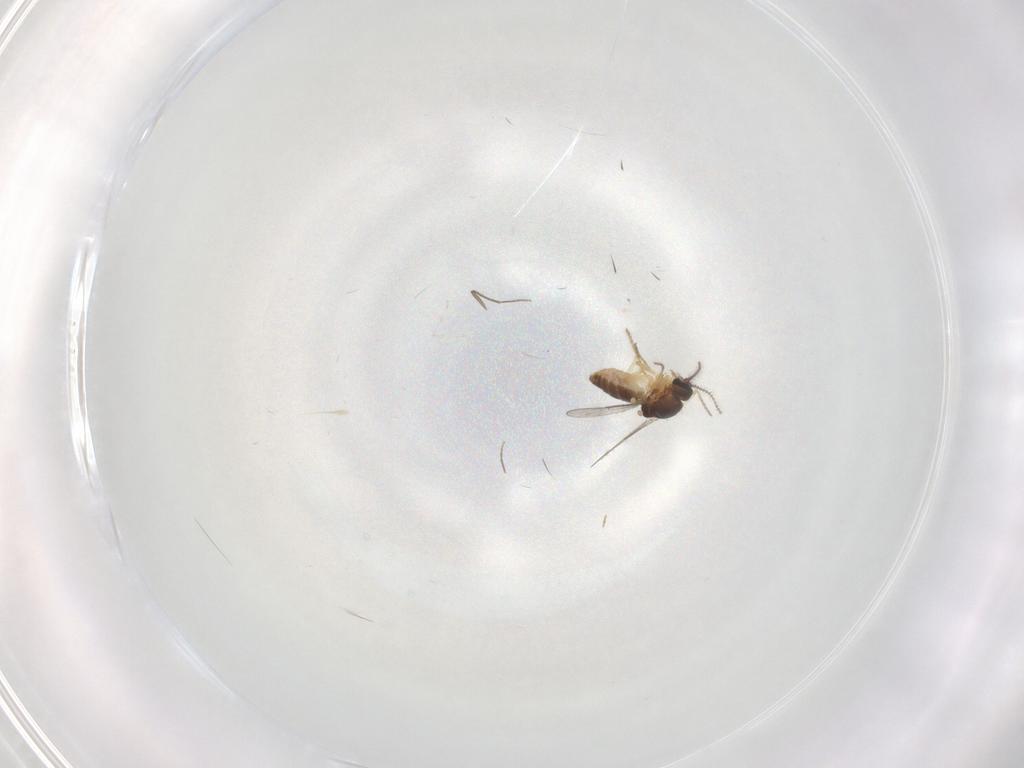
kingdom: Animalia
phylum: Arthropoda
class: Insecta
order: Diptera
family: Ceratopogonidae
